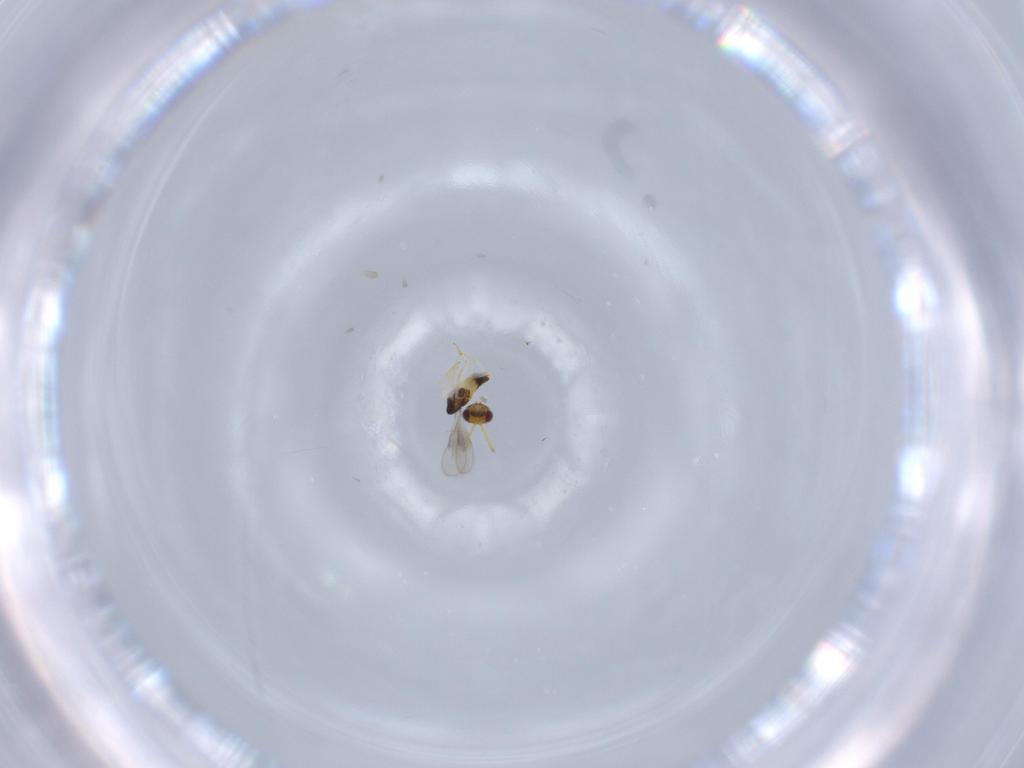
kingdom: Animalia
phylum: Arthropoda
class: Insecta
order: Hymenoptera
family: Aphelinidae
